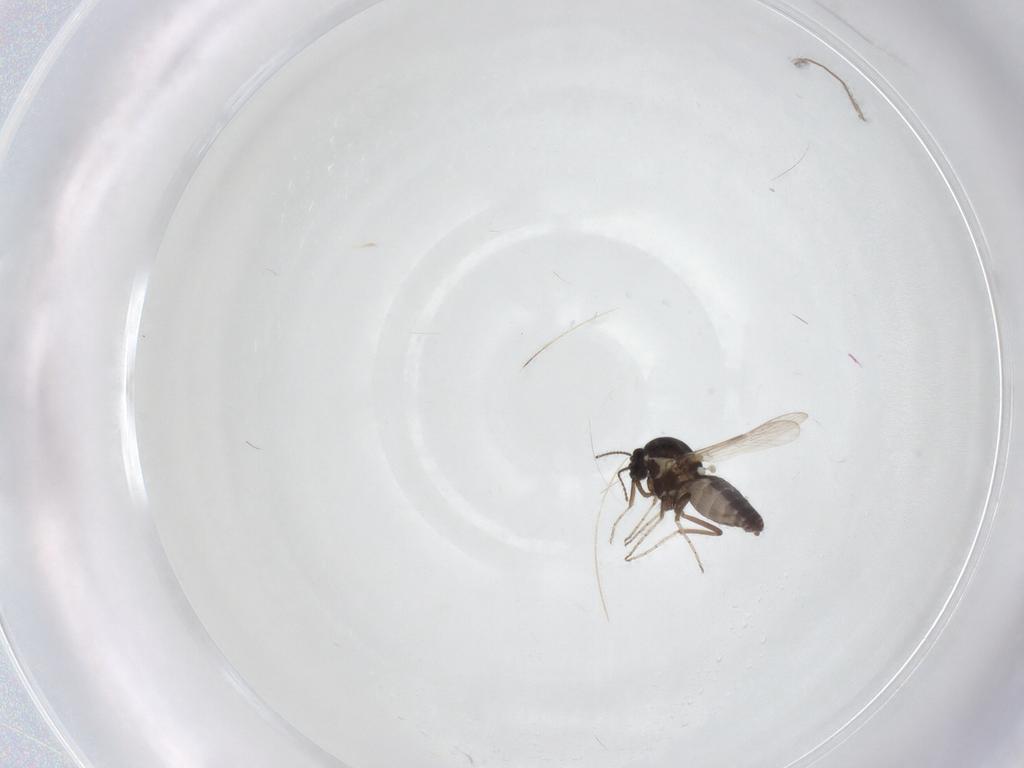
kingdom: Animalia
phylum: Arthropoda
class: Insecta
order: Diptera
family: Ceratopogonidae
